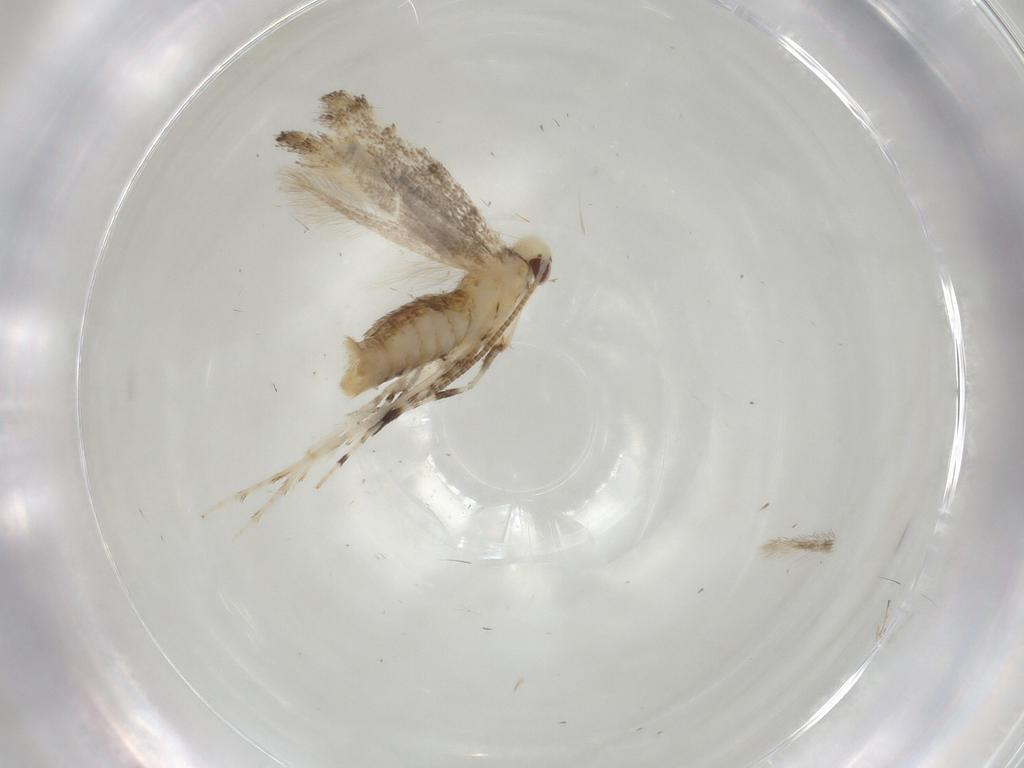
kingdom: Animalia
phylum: Arthropoda
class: Insecta
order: Lepidoptera
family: Gracillariidae
